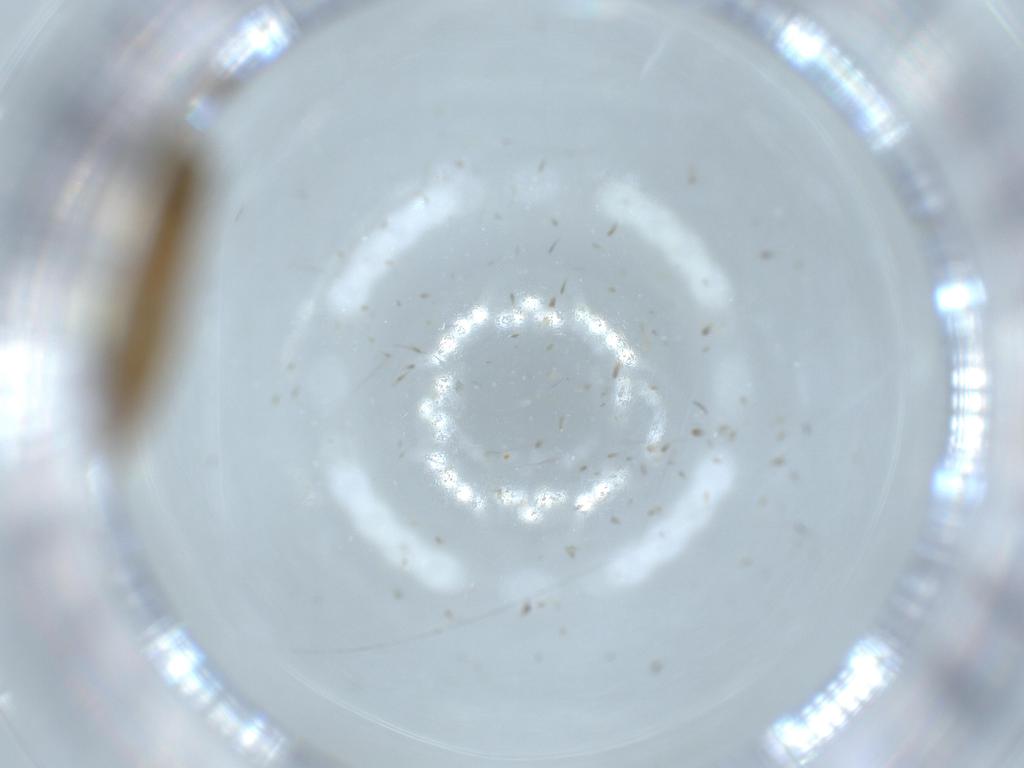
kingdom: Animalia
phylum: Arthropoda
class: Insecta
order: Lepidoptera
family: Tineidae
